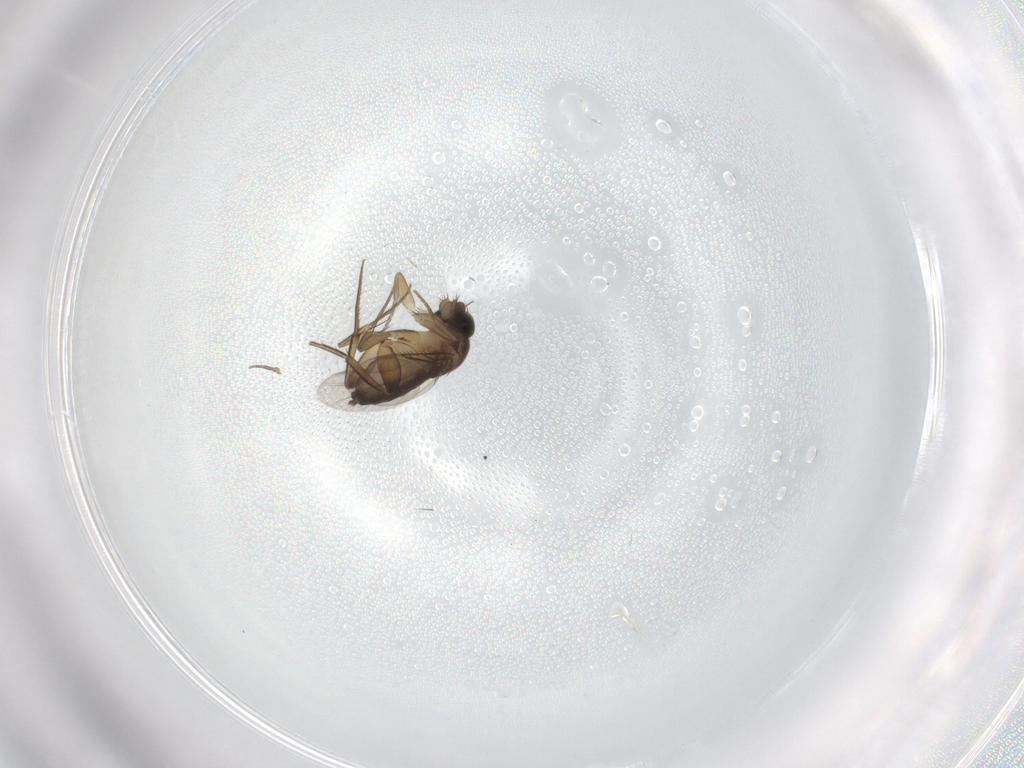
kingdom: Animalia
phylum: Arthropoda
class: Insecta
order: Diptera
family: Phoridae
